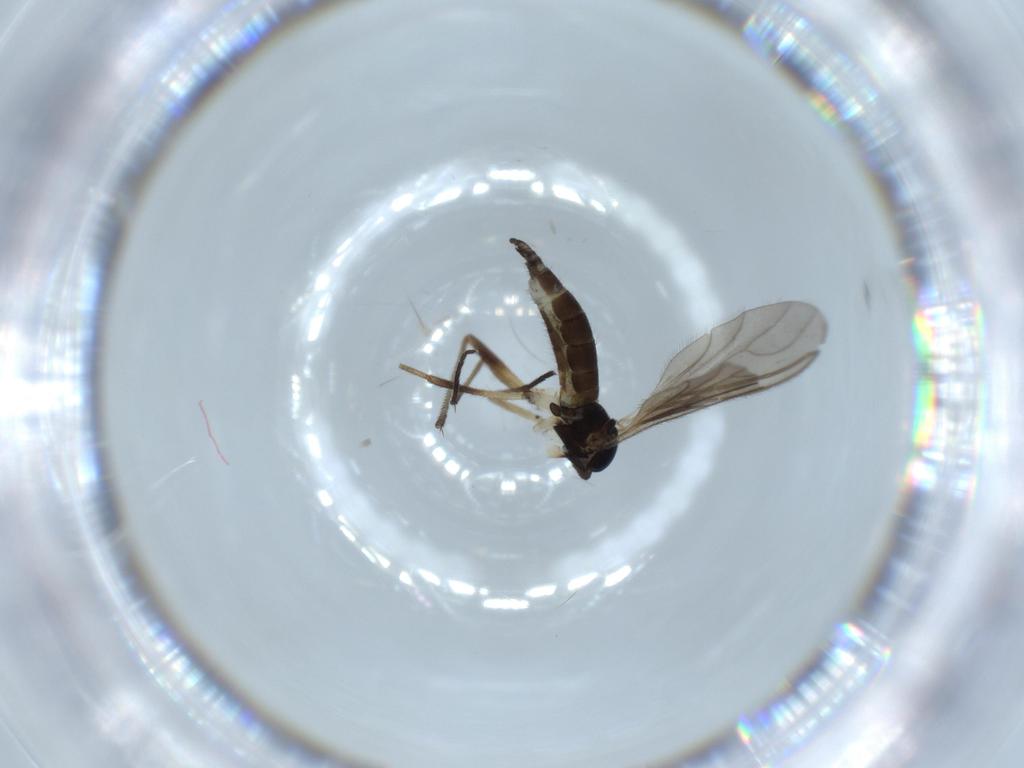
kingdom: Animalia
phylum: Arthropoda
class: Insecta
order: Diptera
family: Sciaridae
